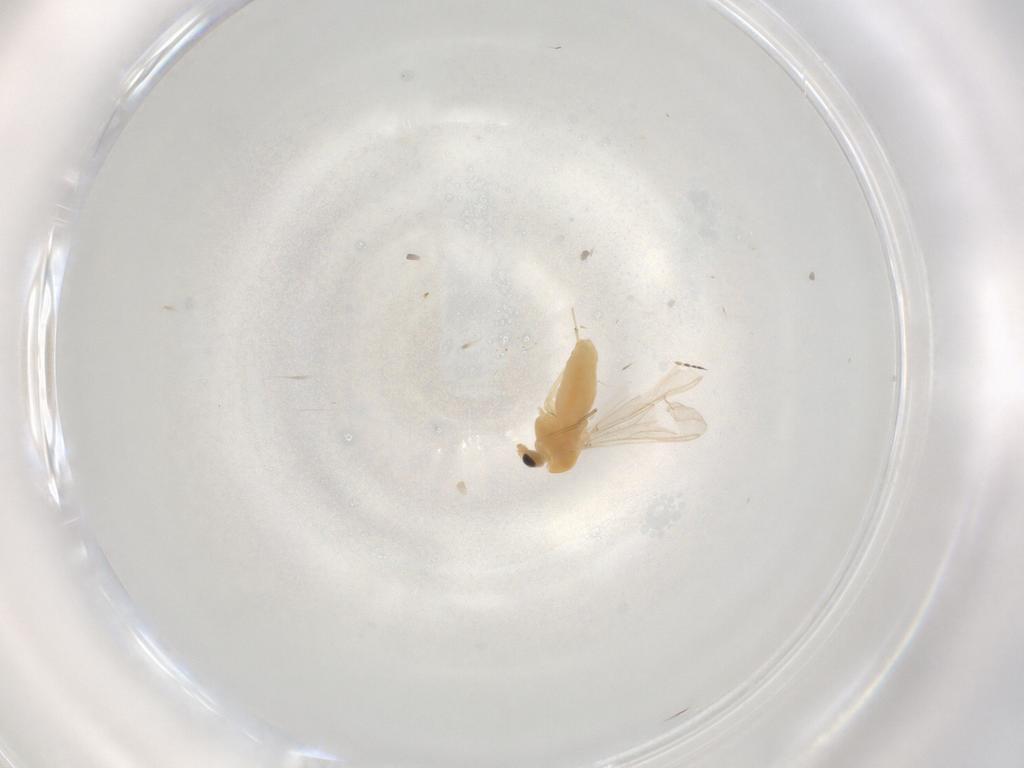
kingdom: Animalia
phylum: Arthropoda
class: Insecta
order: Diptera
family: Chironomidae
